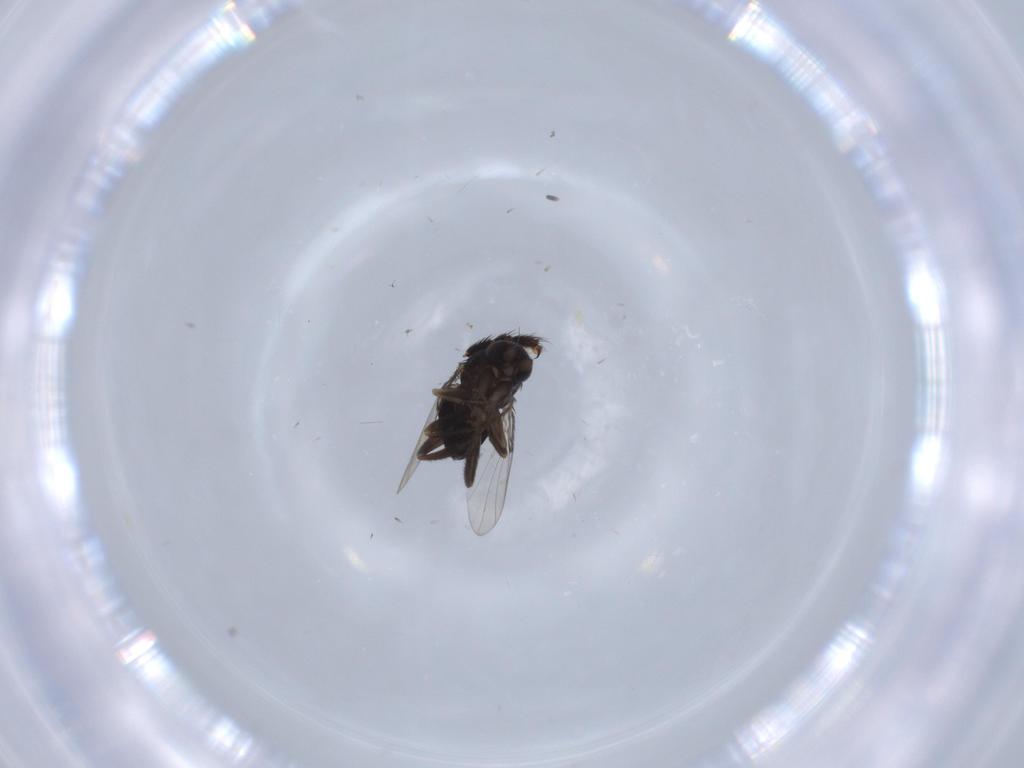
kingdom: Animalia
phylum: Arthropoda
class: Insecta
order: Diptera
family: Phoridae
